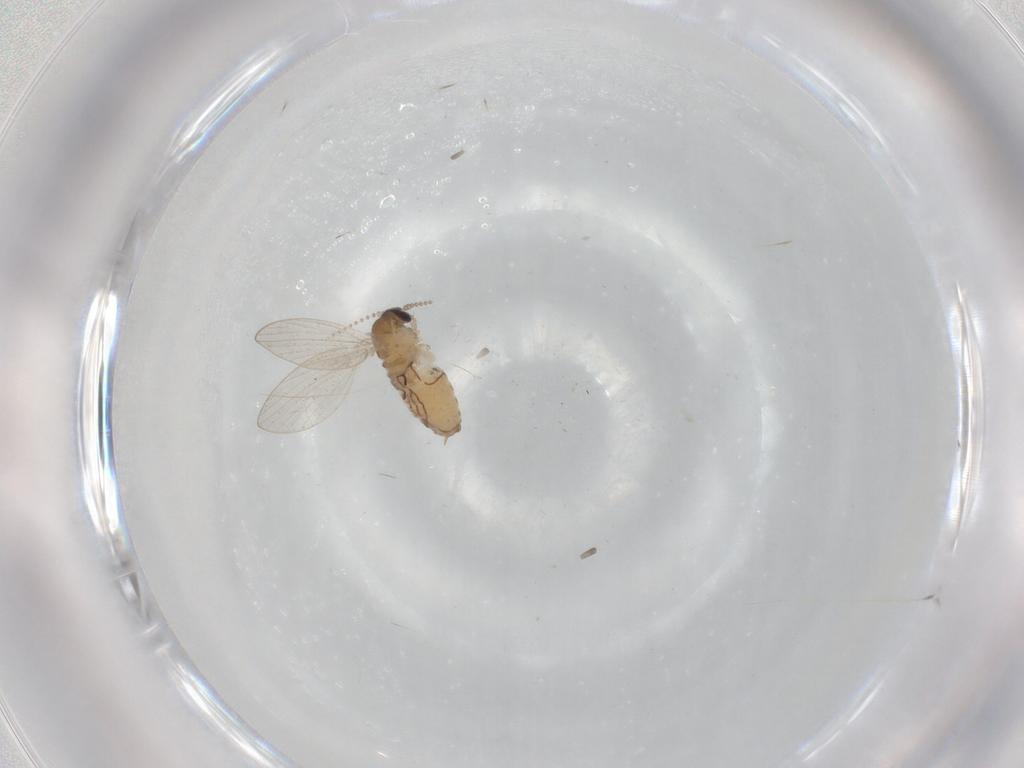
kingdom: Animalia
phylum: Arthropoda
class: Insecta
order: Diptera
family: Psychodidae
